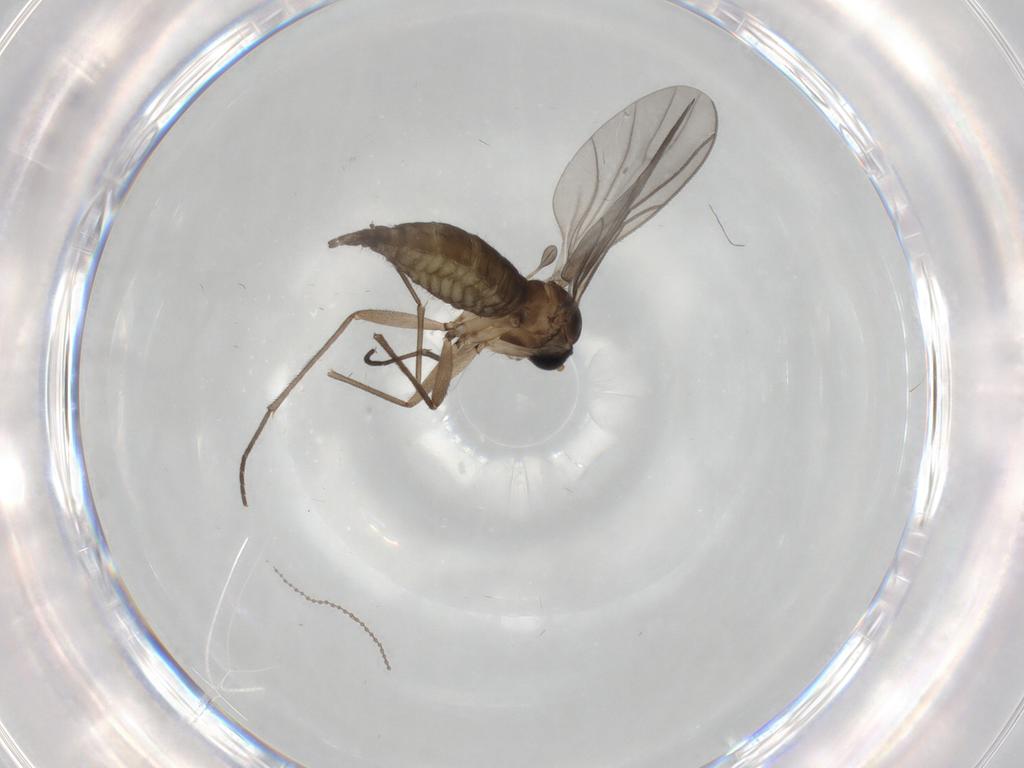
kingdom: Animalia
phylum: Arthropoda
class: Insecta
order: Diptera
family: Cecidomyiidae
